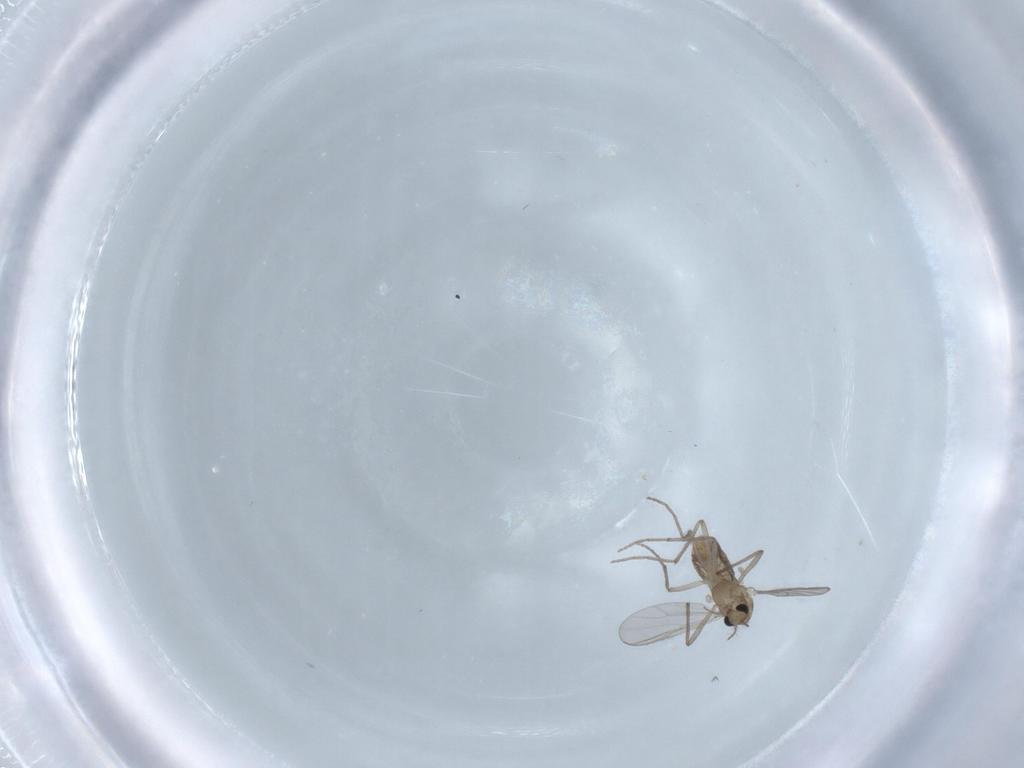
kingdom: Animalia
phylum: Arthropoda
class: Insecta
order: Diptera
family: Chironomidae
